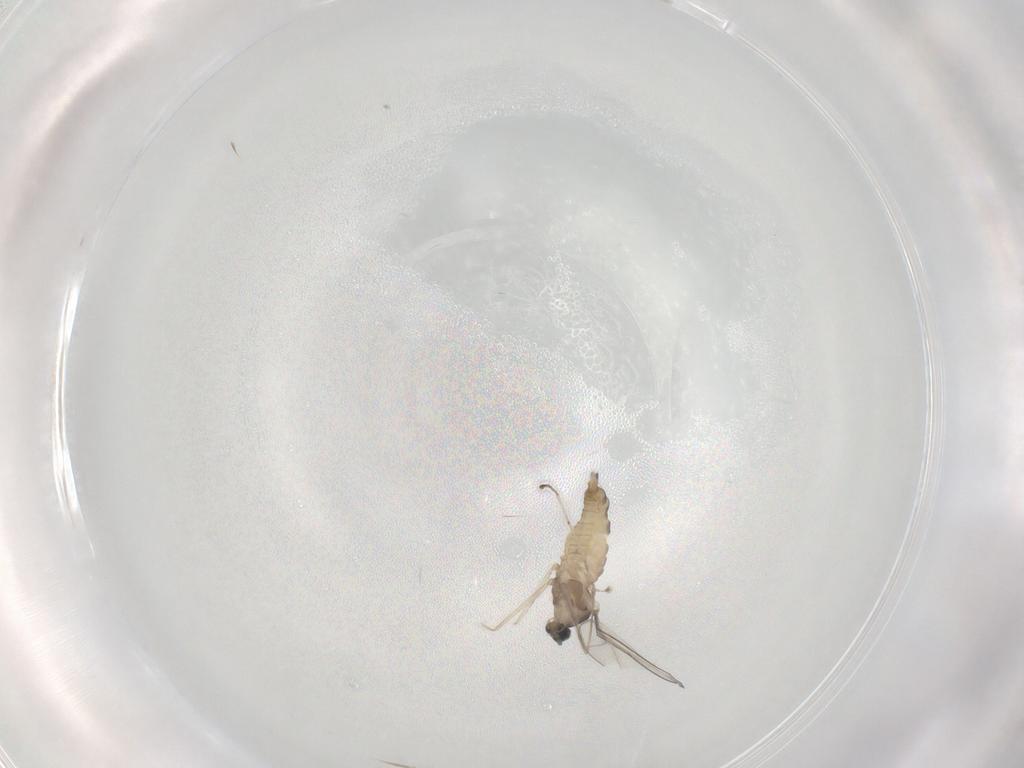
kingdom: Animalia
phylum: Arthropoda
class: Insecta
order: Diptera
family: Cecidomyiidae
